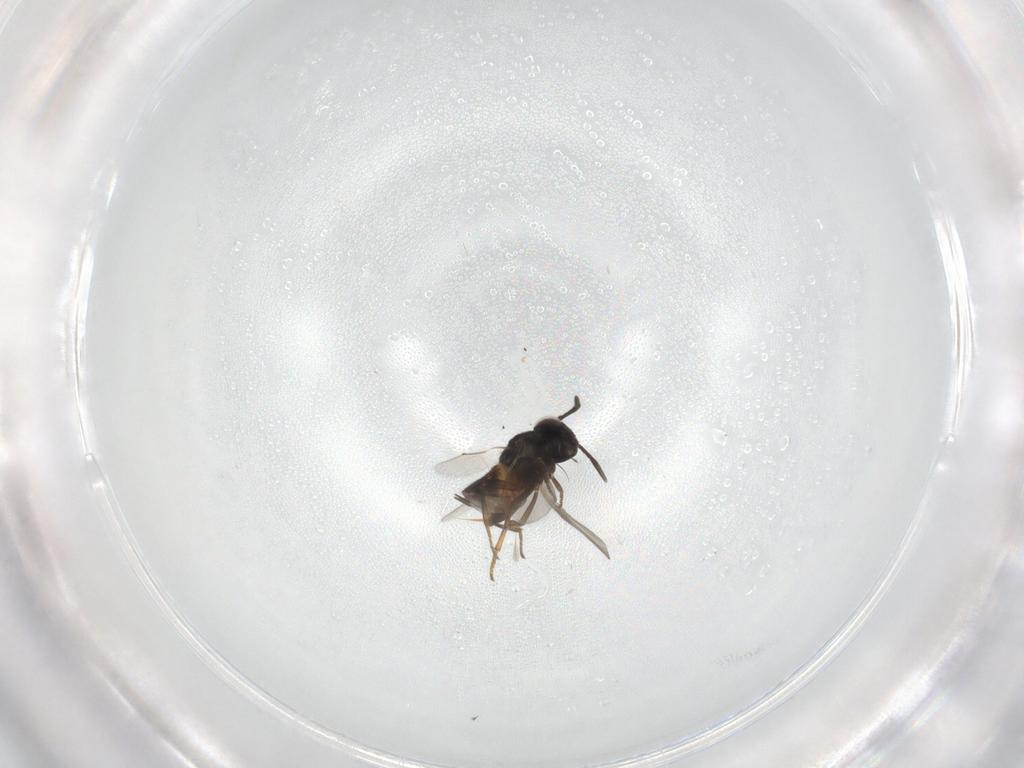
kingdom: Animalia
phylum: Arthropoda
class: Insecta
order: Hymenoptera
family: Encyrtidae
